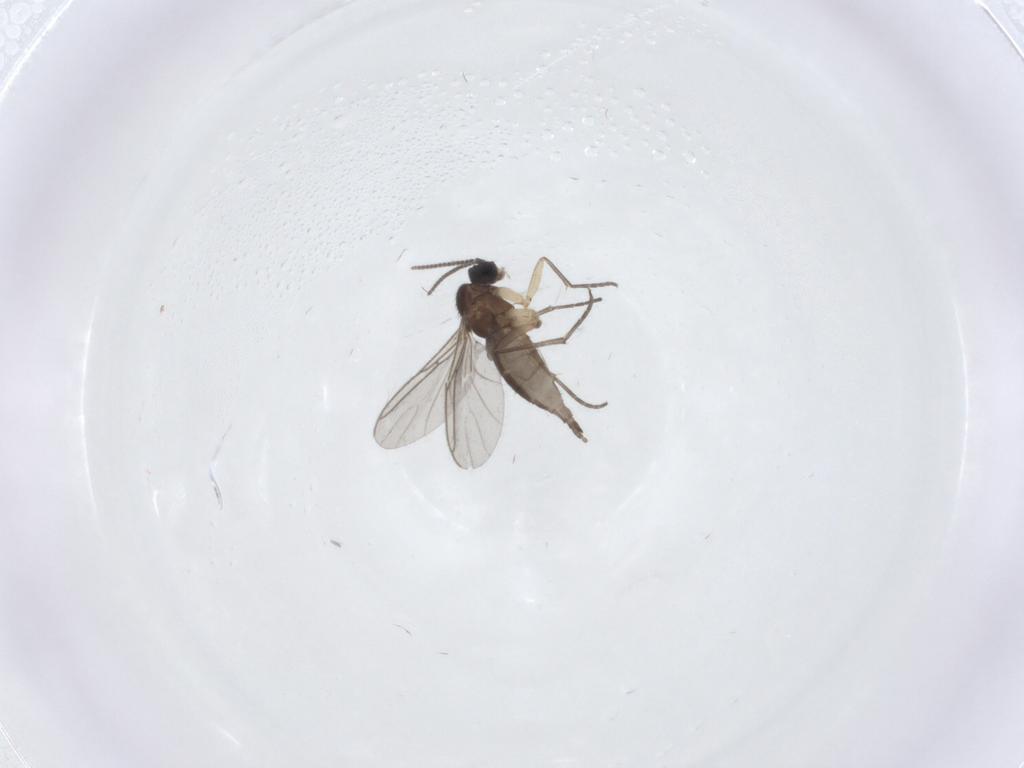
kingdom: Animalia
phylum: Arthropoda
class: Insecta
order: Diptera
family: Sciaridae
